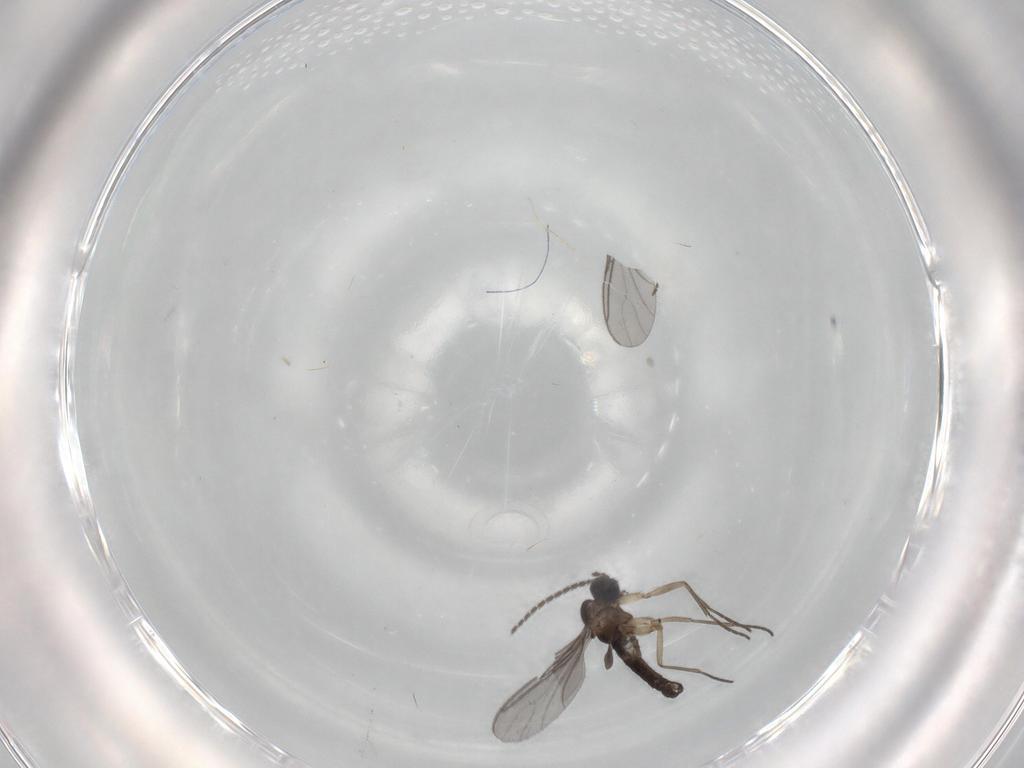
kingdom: Animalia
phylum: Arthropoda
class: Insecta
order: Diptera
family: Sciaridae
